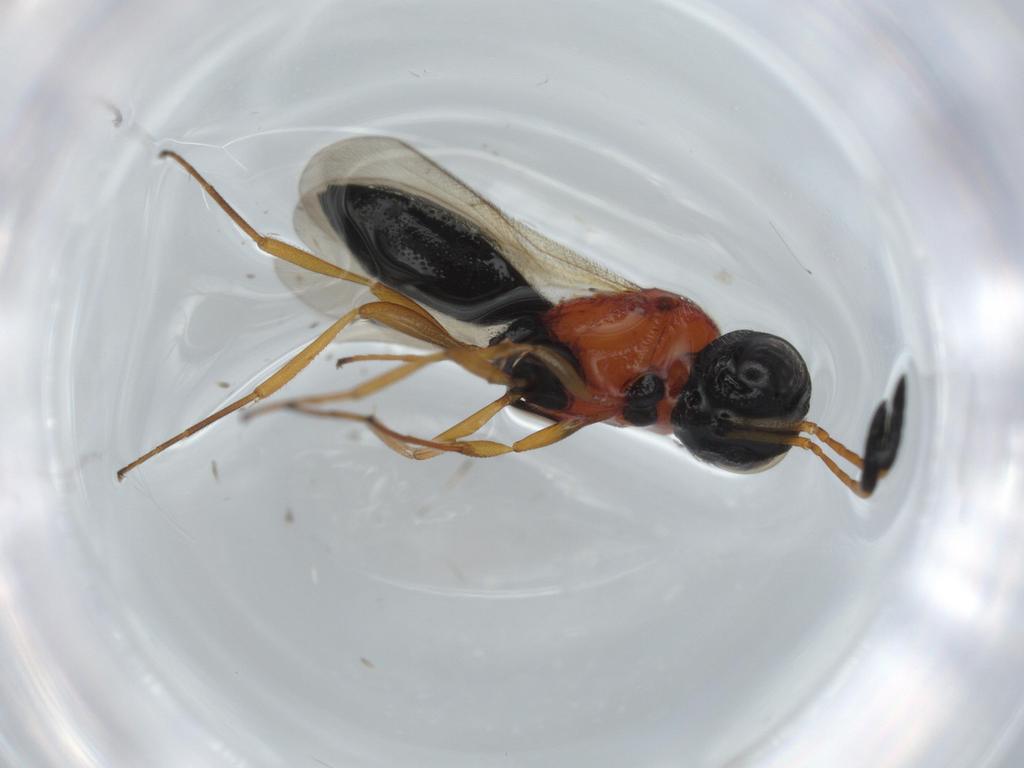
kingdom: Animalia
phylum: Arthropoda
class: Insecta
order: Hymenoptera
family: Scelionidae
